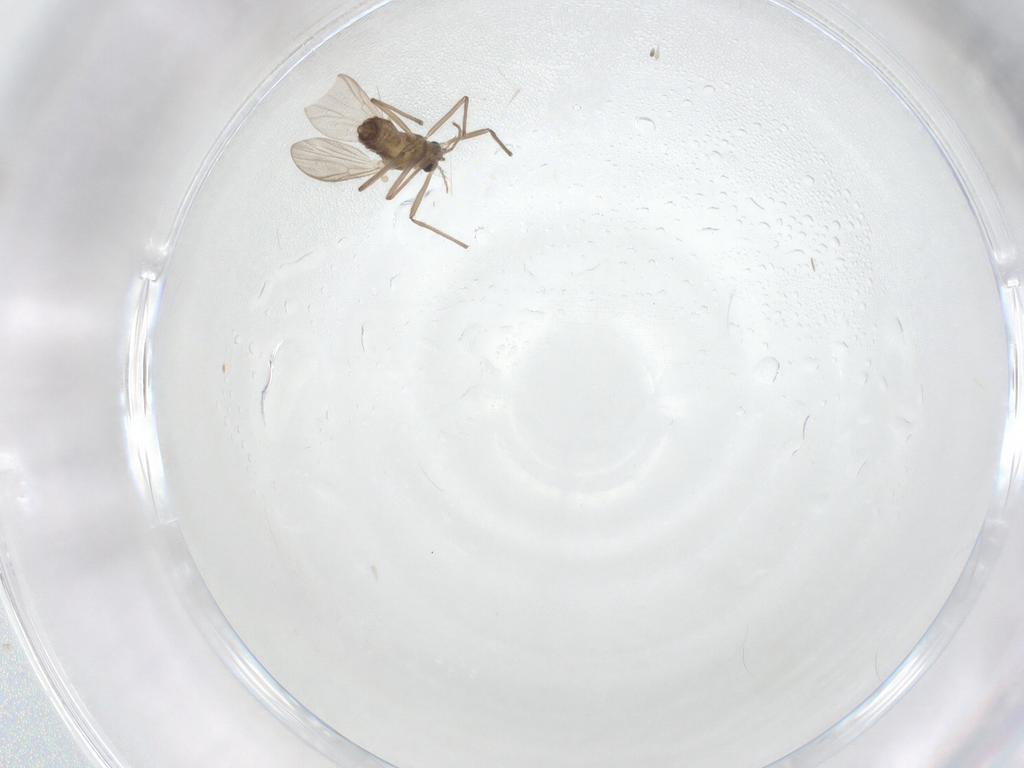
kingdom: Animalia
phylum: Arthropoda
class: Insecta
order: Diptera
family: Chironomidae
